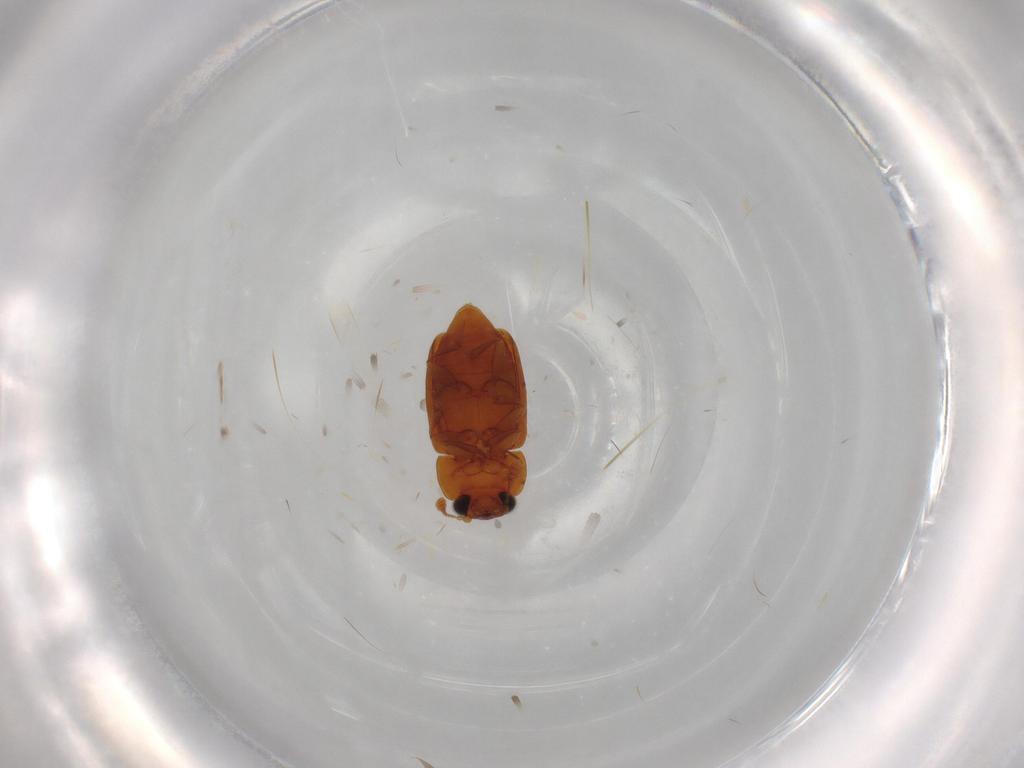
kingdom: Animalia
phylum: Arthropoda
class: Insecta
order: Coleoptera
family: Nitidulidae
